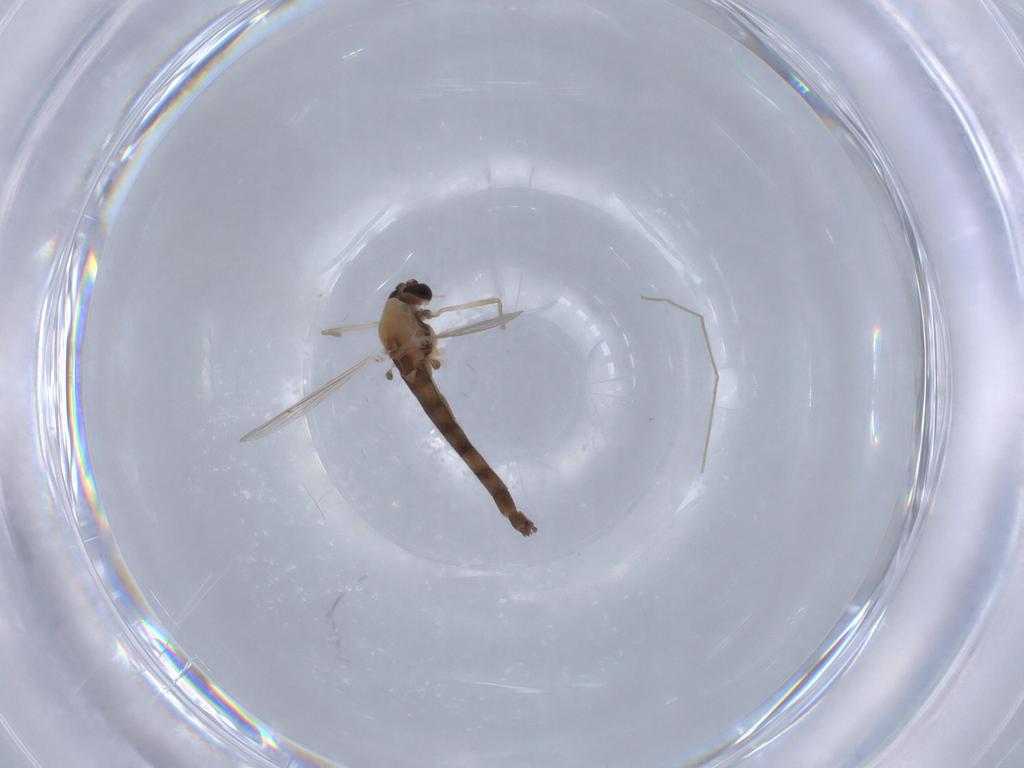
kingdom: Animalia
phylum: Arthropoda
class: Insecta
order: Diptera
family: Chironomidae
